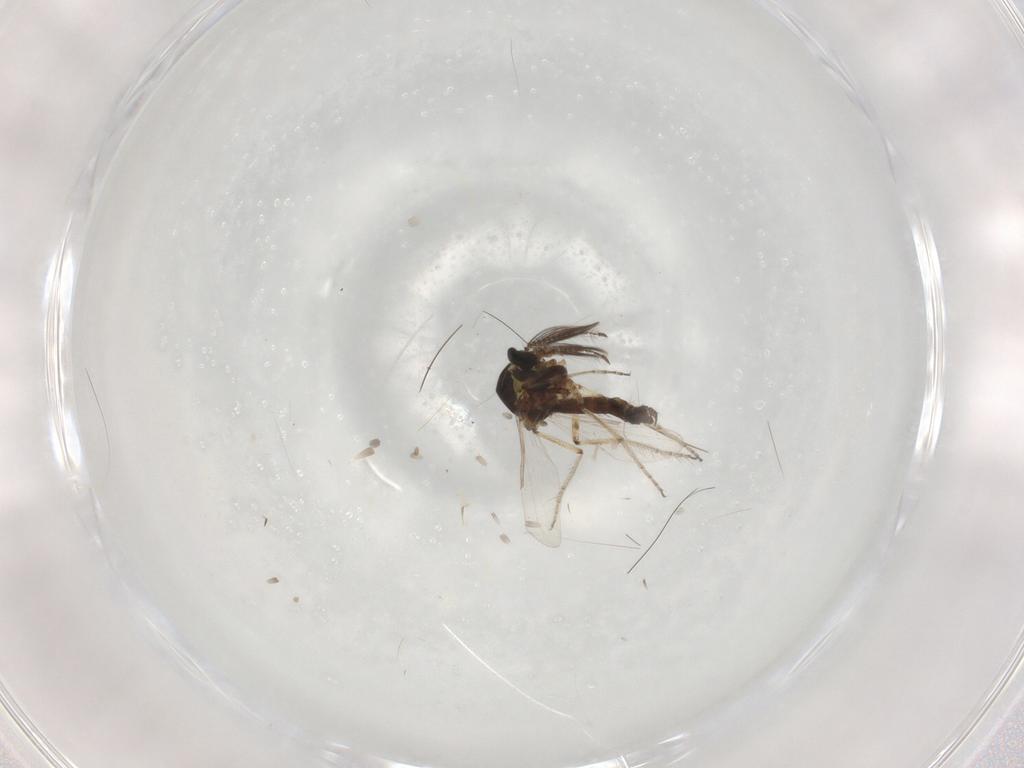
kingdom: Animalia
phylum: Arthropoda
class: Insecta
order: Diptera
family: Ceratopogonidae
